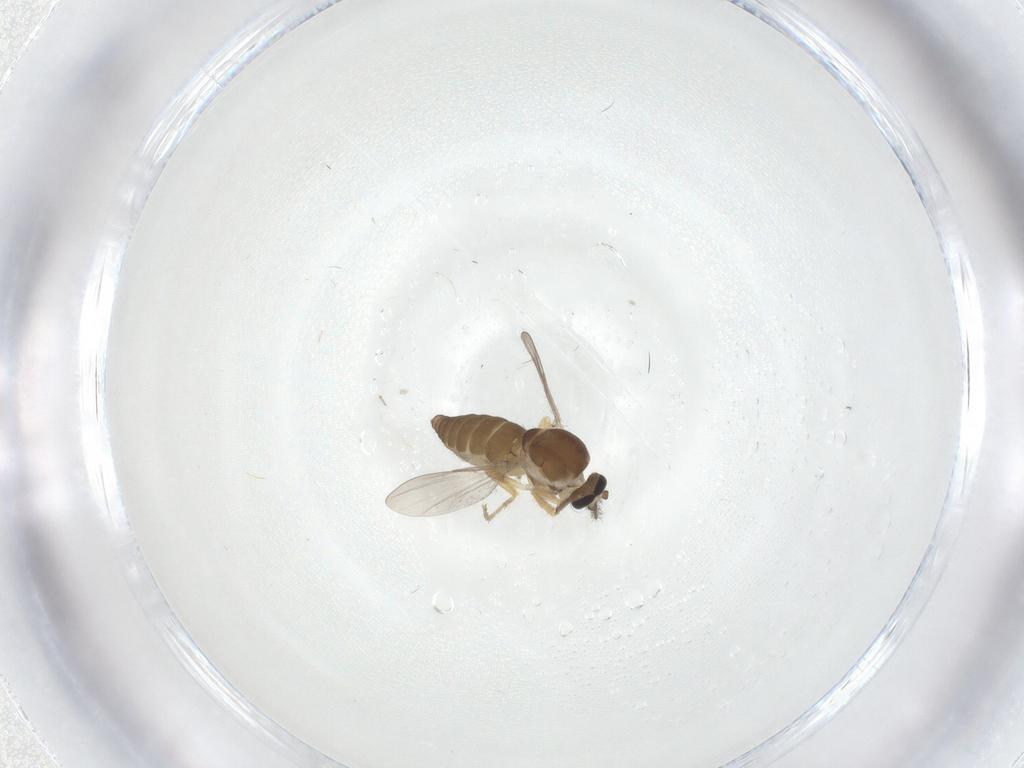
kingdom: Animalia
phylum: Arthropoda
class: Insecta
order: Diptera
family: Ceratopogonidae
